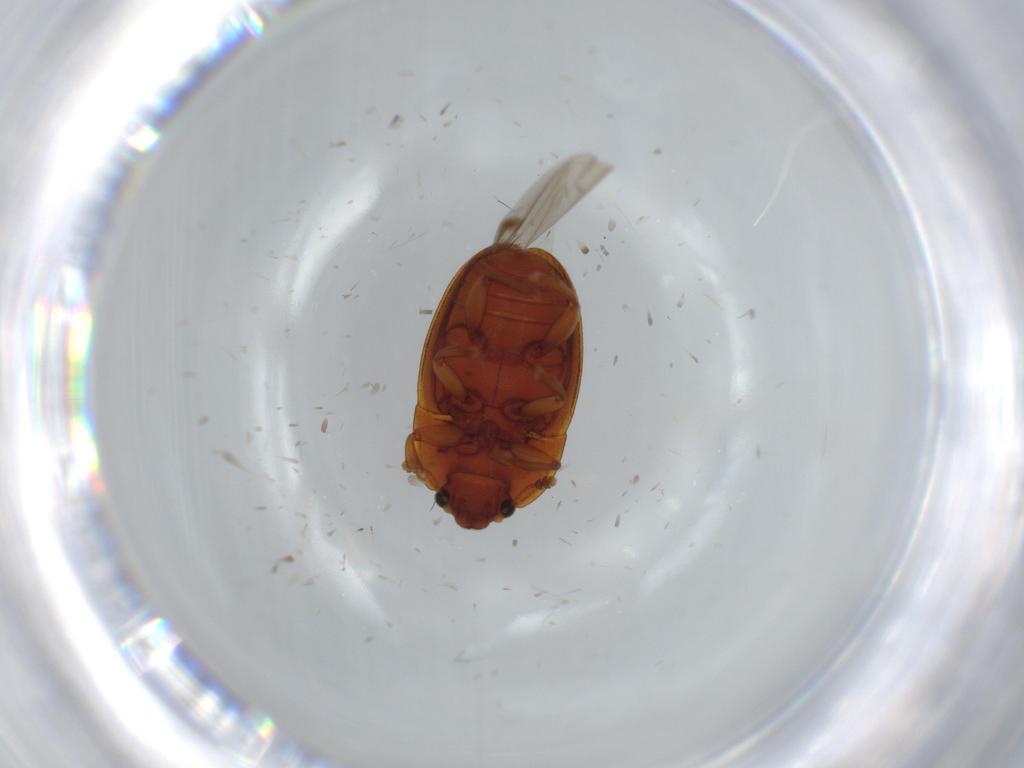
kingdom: Animalia
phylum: Arthropoda
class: Insecta
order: Coleoptera
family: Nitidulidae
